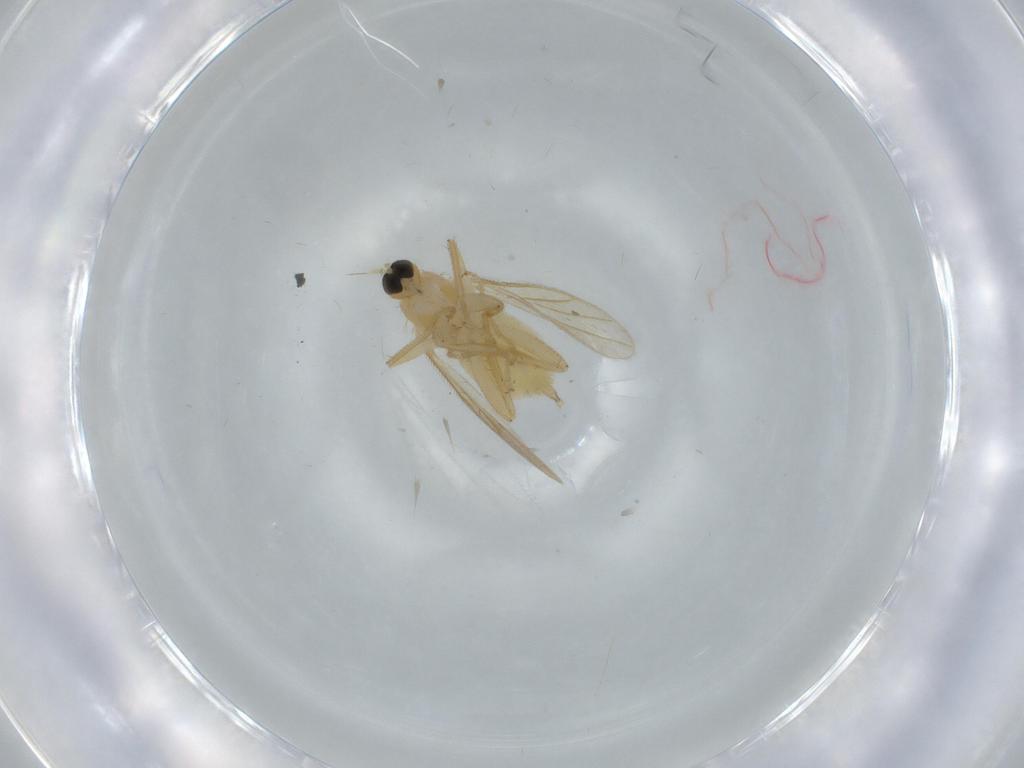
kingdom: Animalia
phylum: Arthropoda
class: Insecta
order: Diptera
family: Hybotidae
